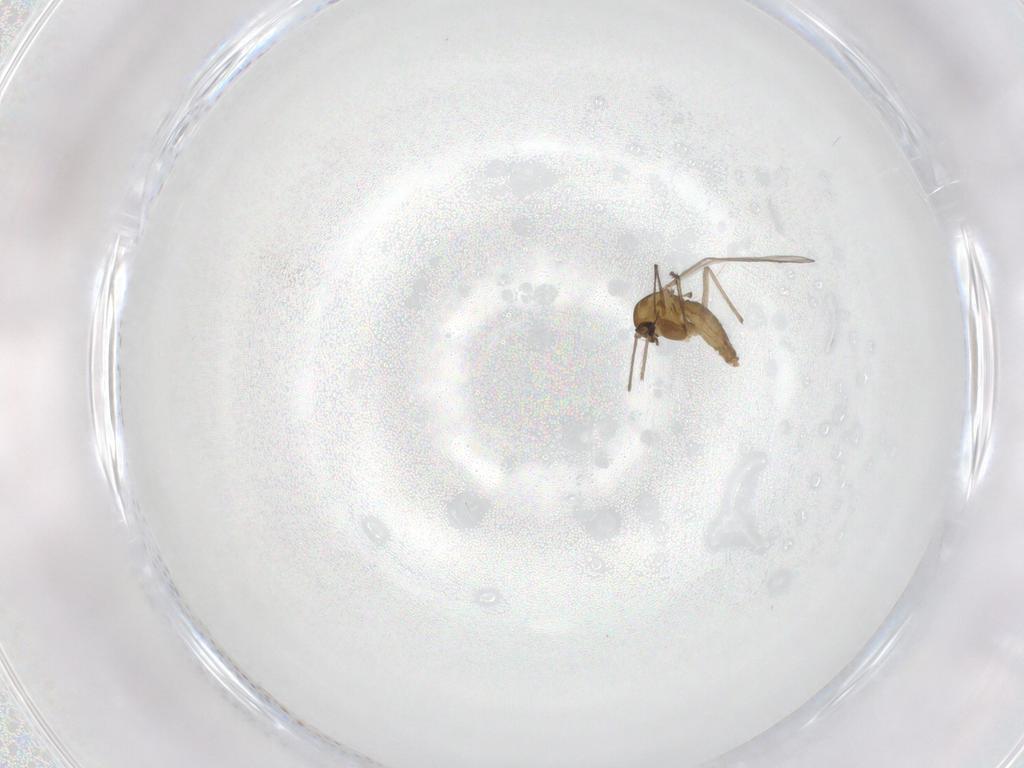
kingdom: Animalia
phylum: Arthropoda
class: Insecta
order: Diptera
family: Chironomidae
